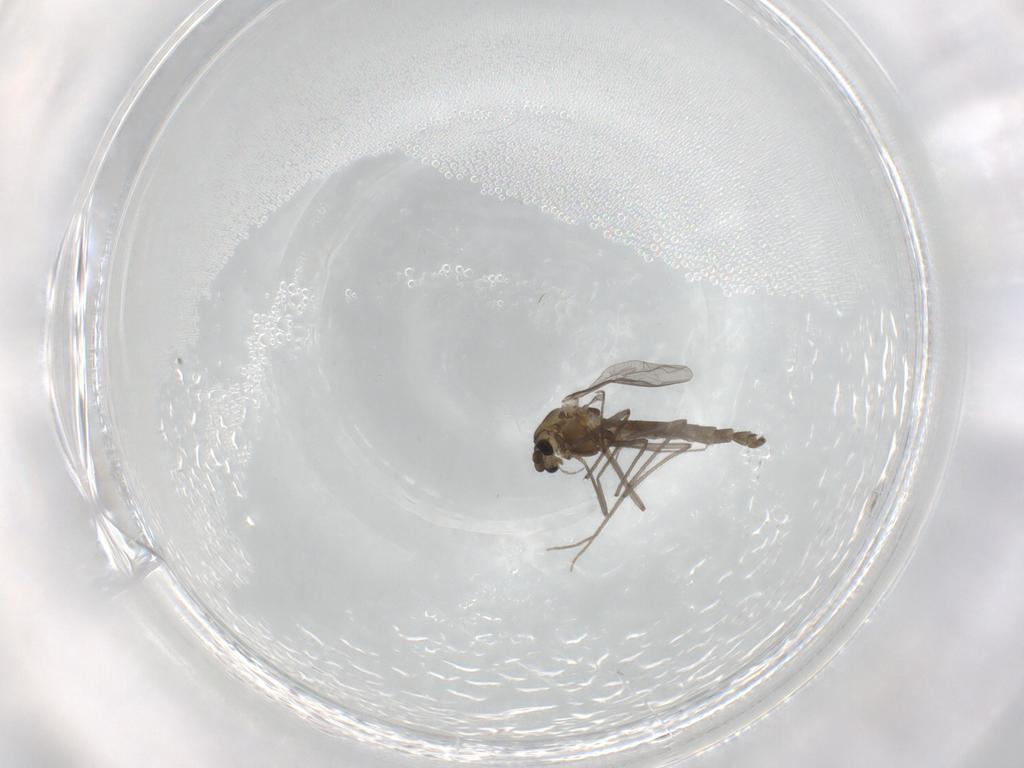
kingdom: Animalia
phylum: Arthropoda
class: Insecta
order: Diptera
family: Chironomidae
